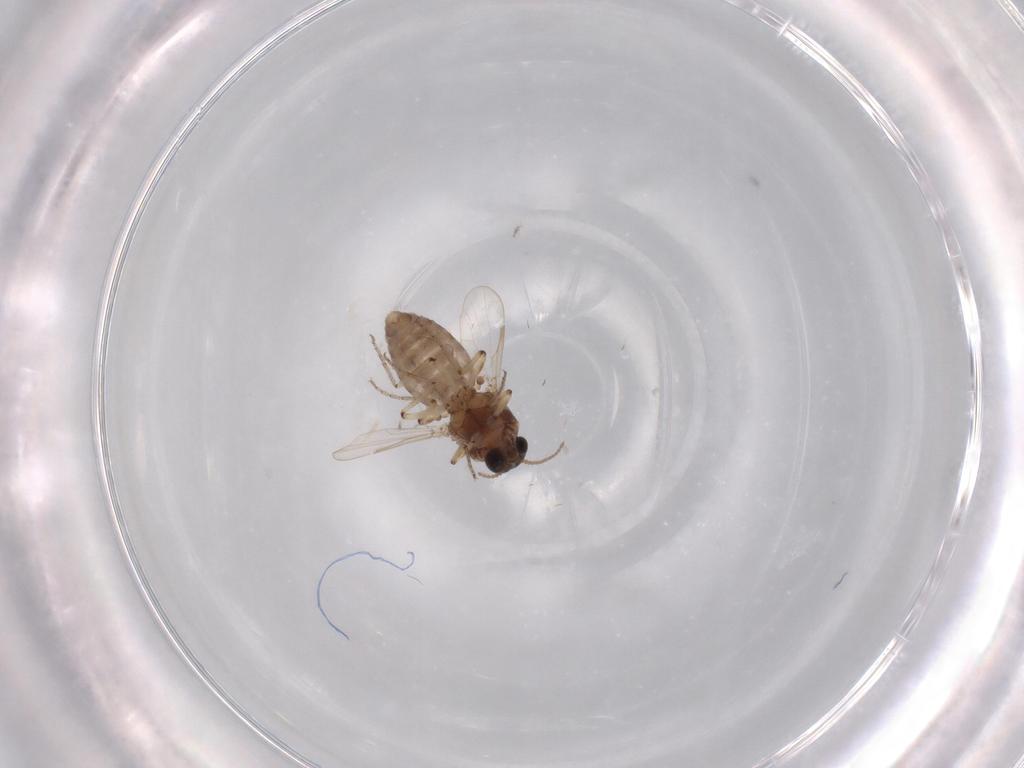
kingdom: Animalia
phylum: Arthropoda
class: Insecta
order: Diptera
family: Ceratopogonidae
